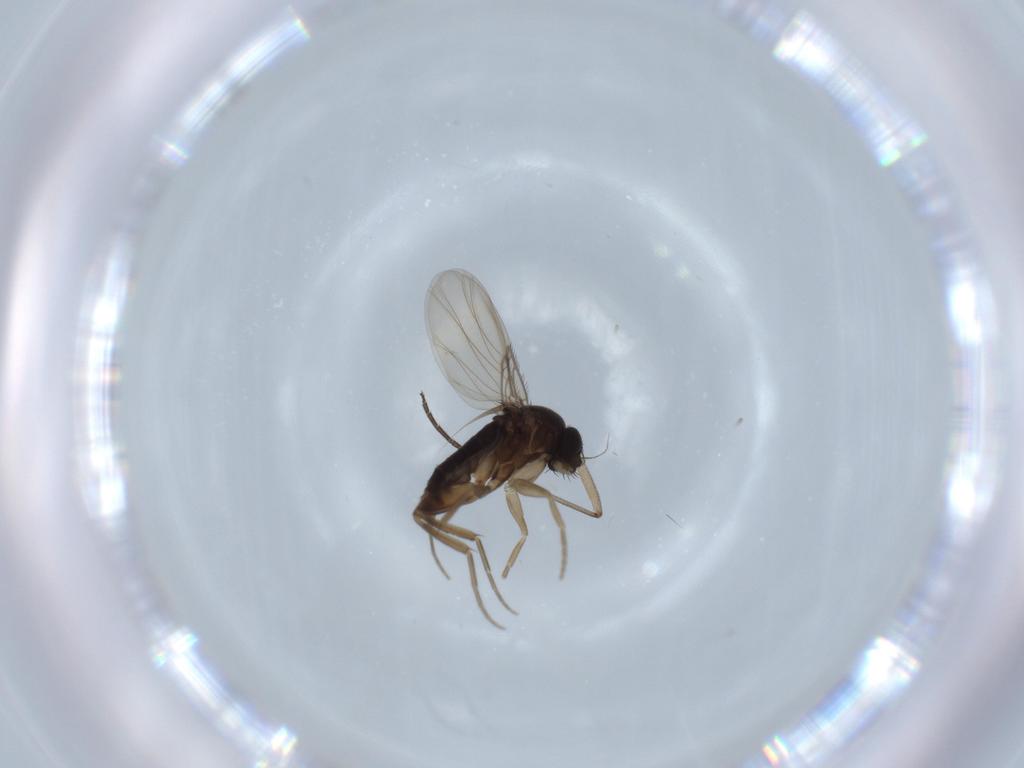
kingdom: Animalia
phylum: Arthropoda
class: Insecta
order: Diptera
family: Phoridae
